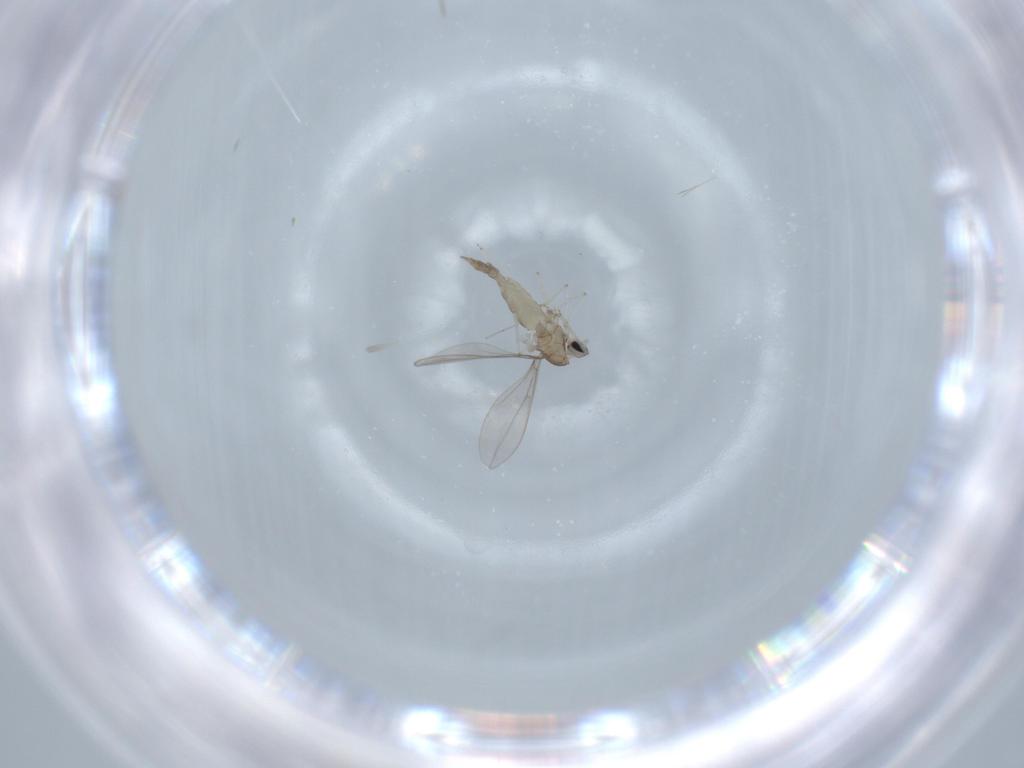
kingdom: Animalia
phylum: Arthropoda
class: Insecta
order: Diptera
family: Cecidomyiidae
